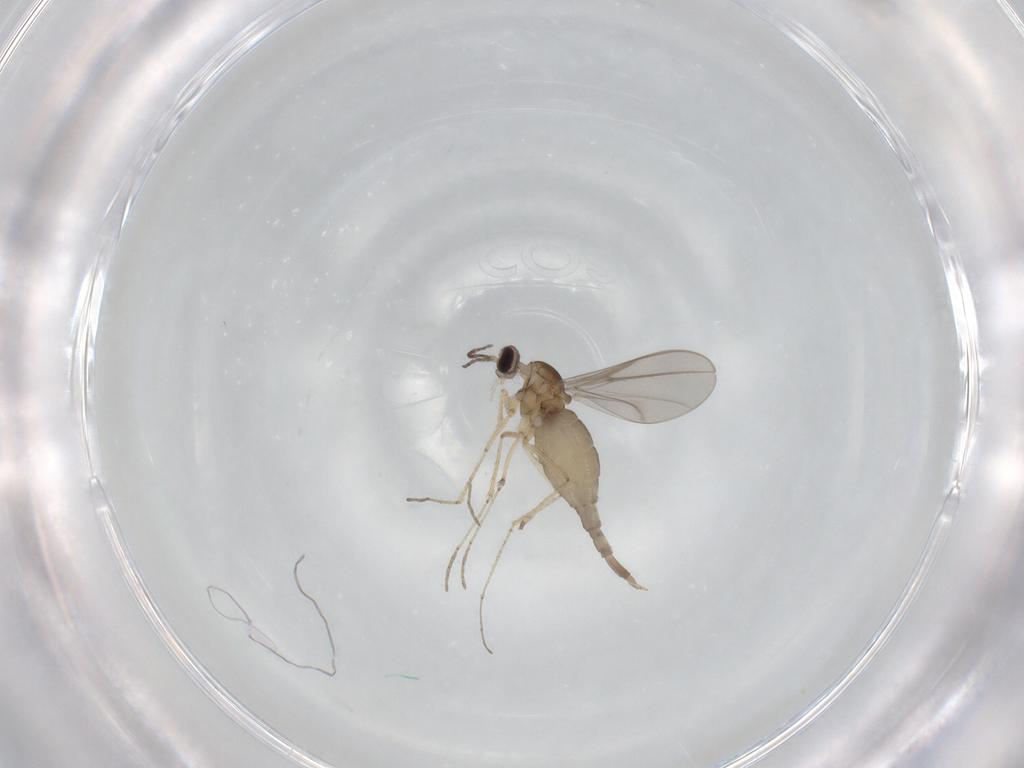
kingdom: Animalia
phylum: Arthropoda
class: Insecta
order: Diptera
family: Cecidomyiidae
